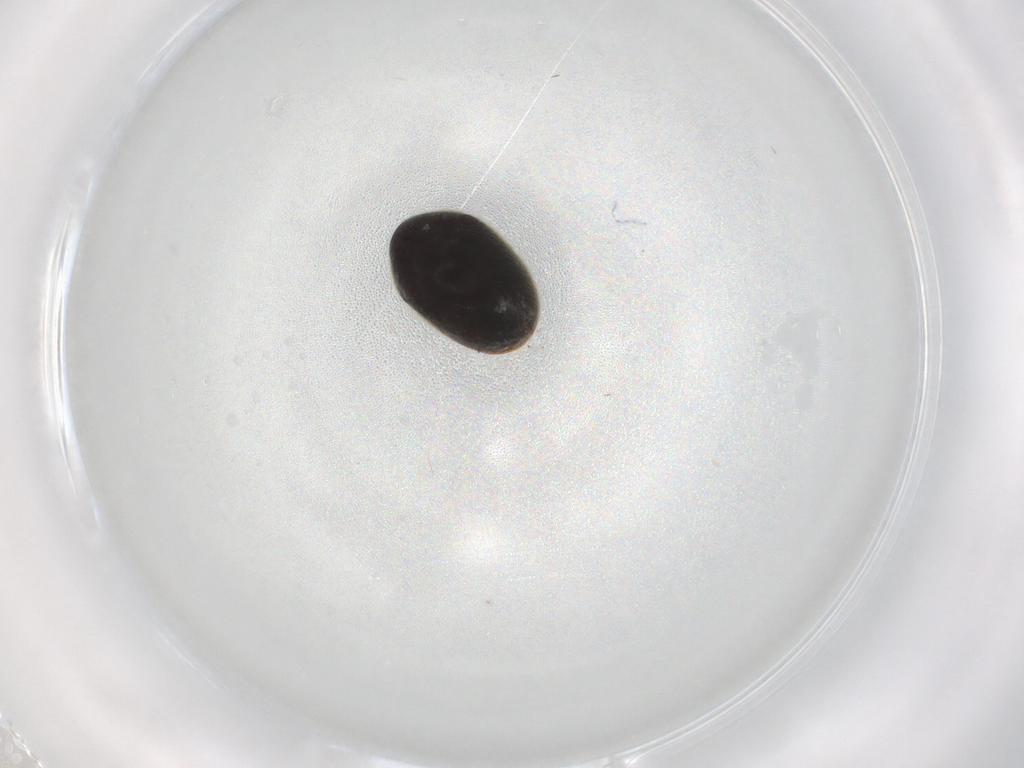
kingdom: Animalia
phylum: Arthropoda
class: Insecta
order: Coleoptera
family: Ptinidae
